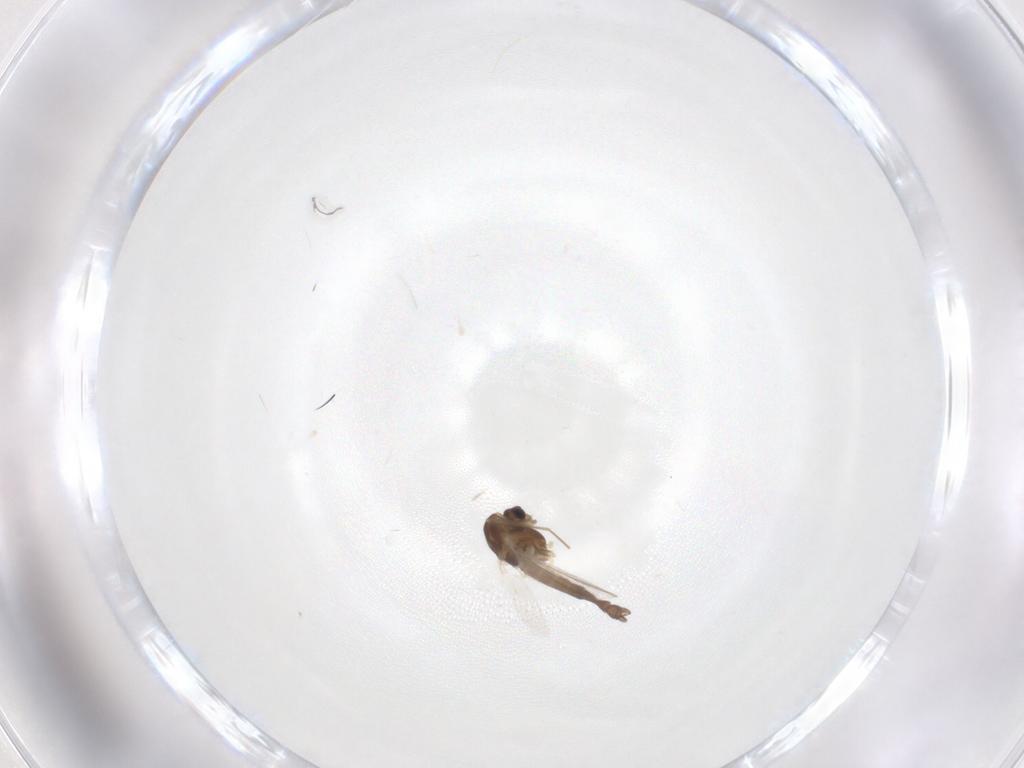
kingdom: Animalia
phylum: Arthropoda
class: Insecta
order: Diptera
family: Chironomidae
